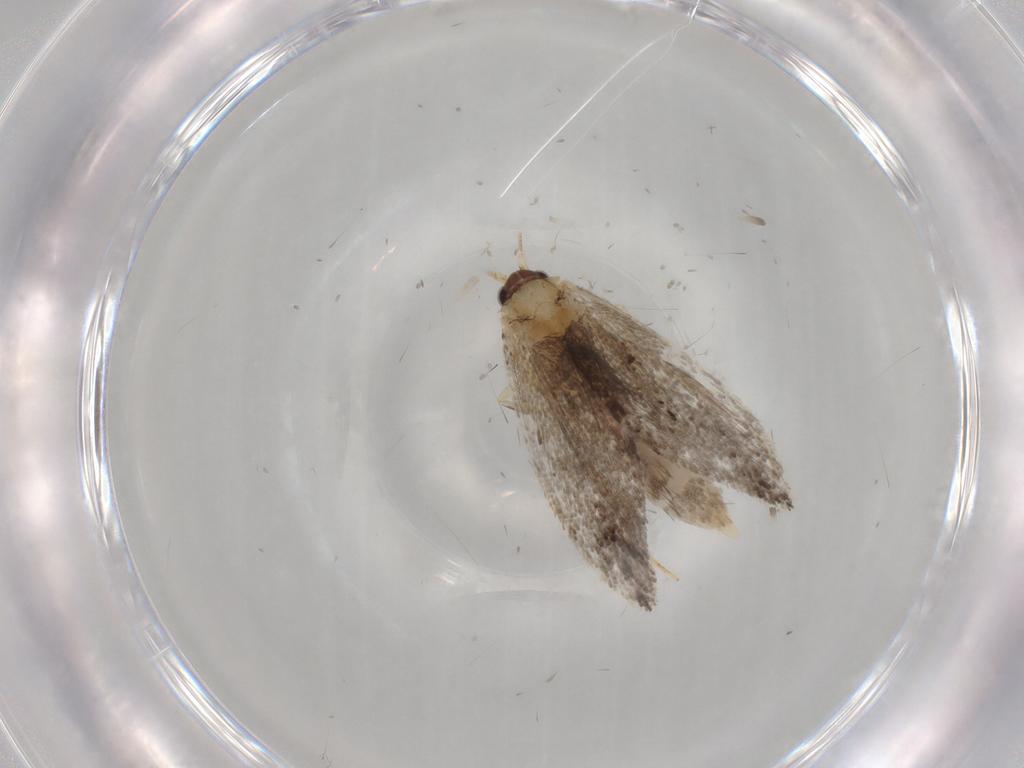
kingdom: Animalia
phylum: Arthropoda
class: Insecta
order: Lepidoptera
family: Nepticulidae
